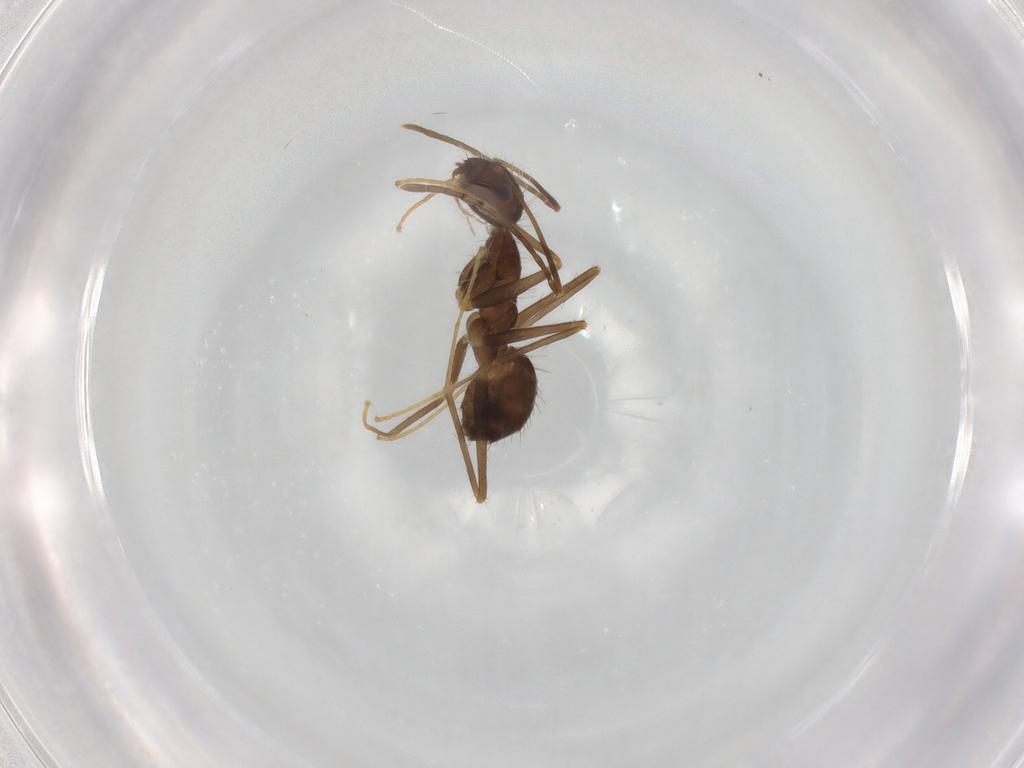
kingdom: Animalia
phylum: Arthropoda
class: Insecta
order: Hymenoptera
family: Formicidae
